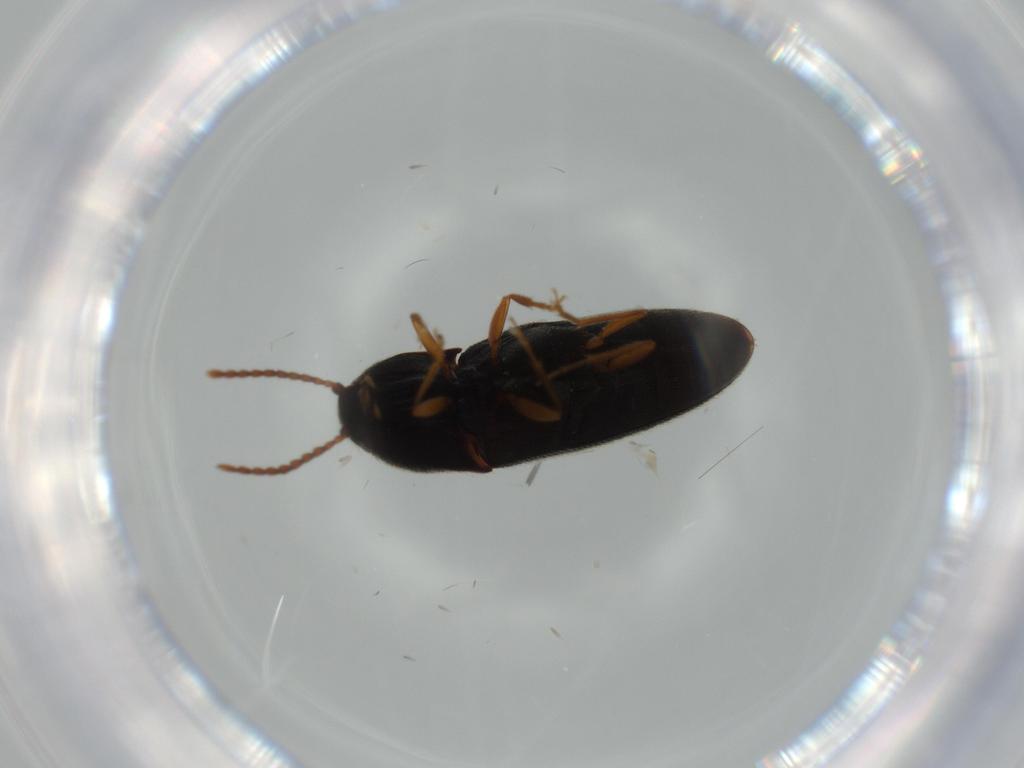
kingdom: Animalia
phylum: Arthropoda
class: Insecta
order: Coleoptera
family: Elateridae
